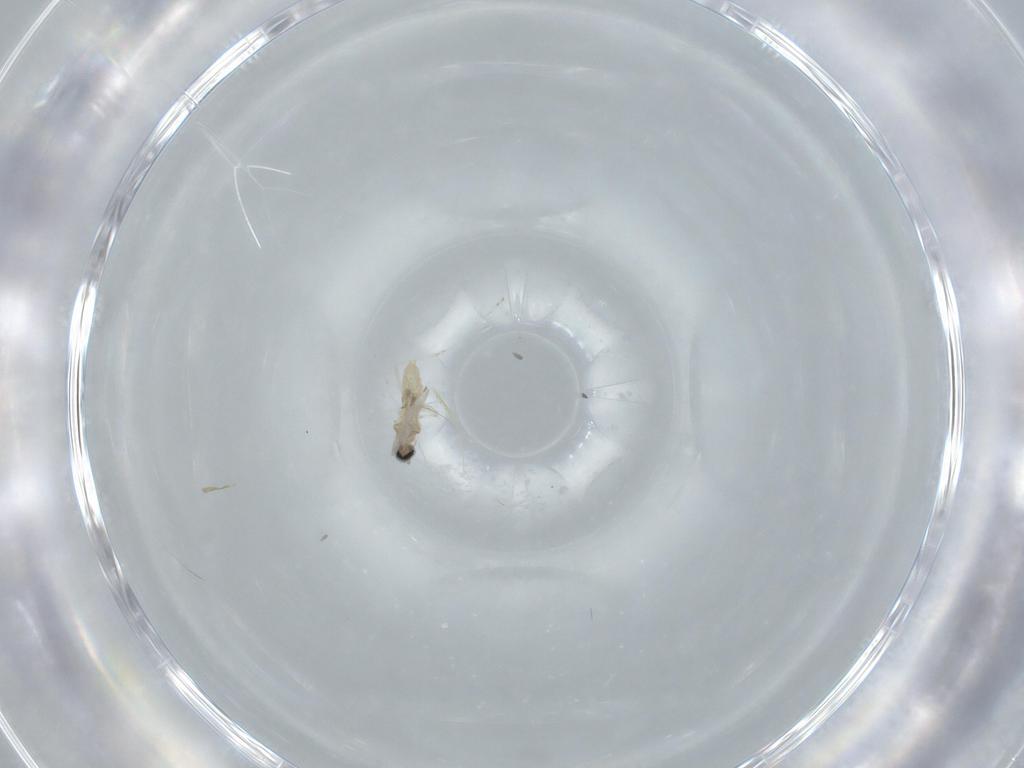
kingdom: Animalia
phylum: Arthropoda
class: Insecta
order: Diptera
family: Cecidomyiidae
